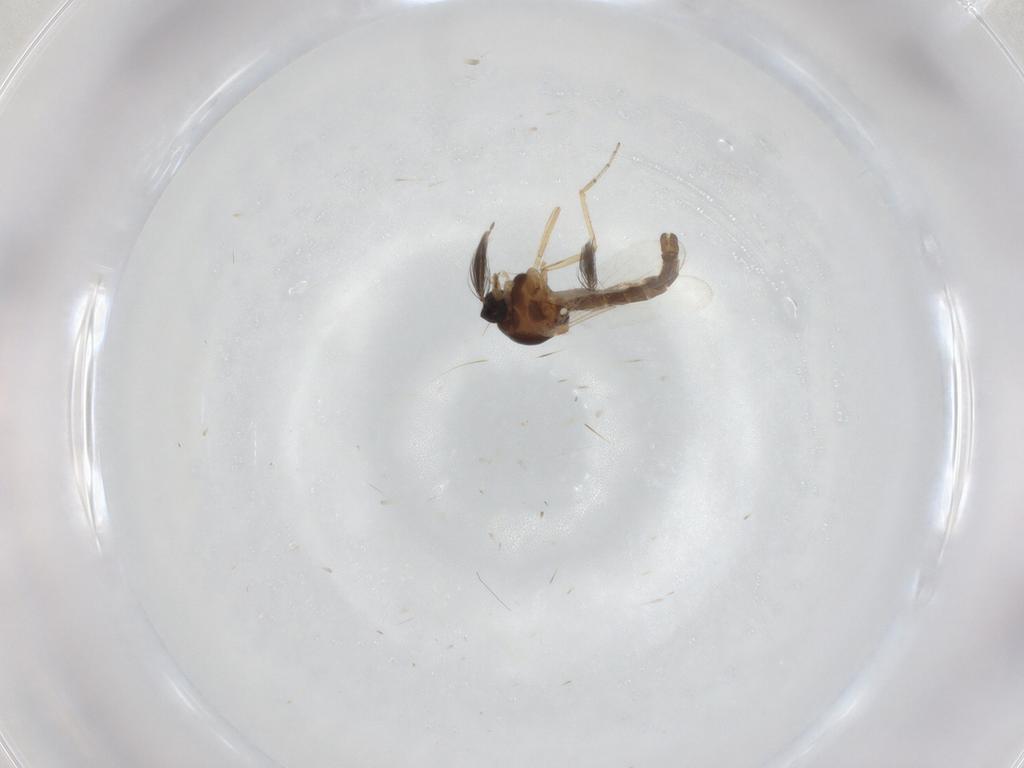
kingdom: Animalia
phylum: Arthropoda
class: Insecta
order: Diptera
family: Ceratopogonidae
